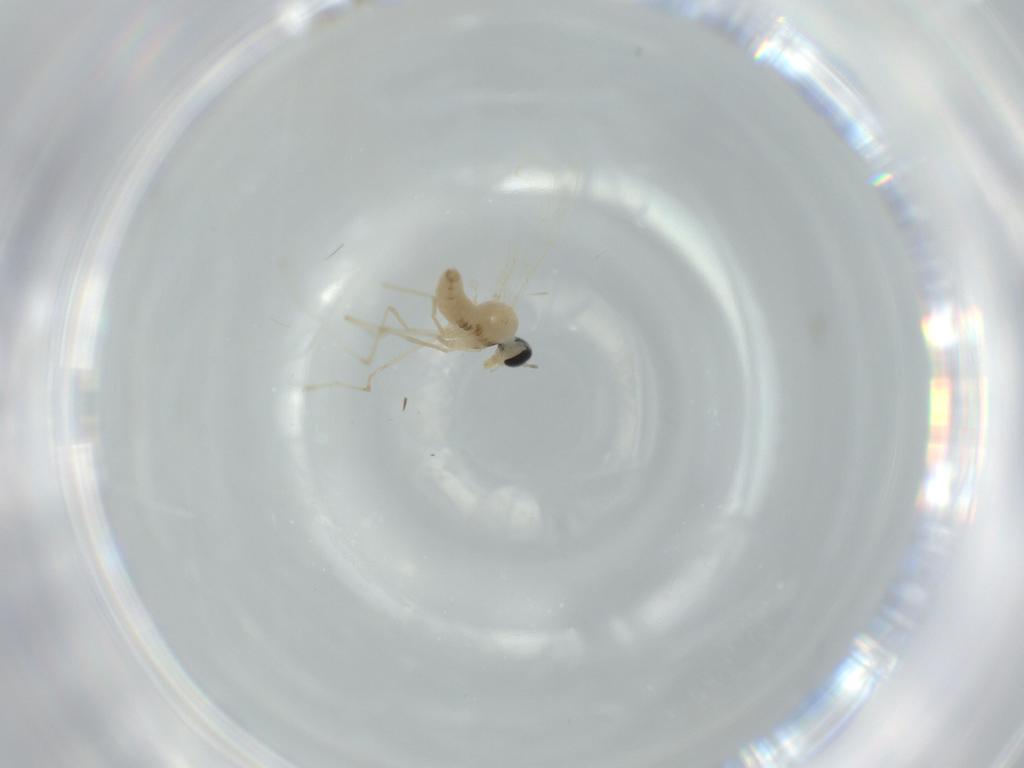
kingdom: Animalia
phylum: Arthropoda
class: Insecta
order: Diptera
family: Cecidomyiidae
